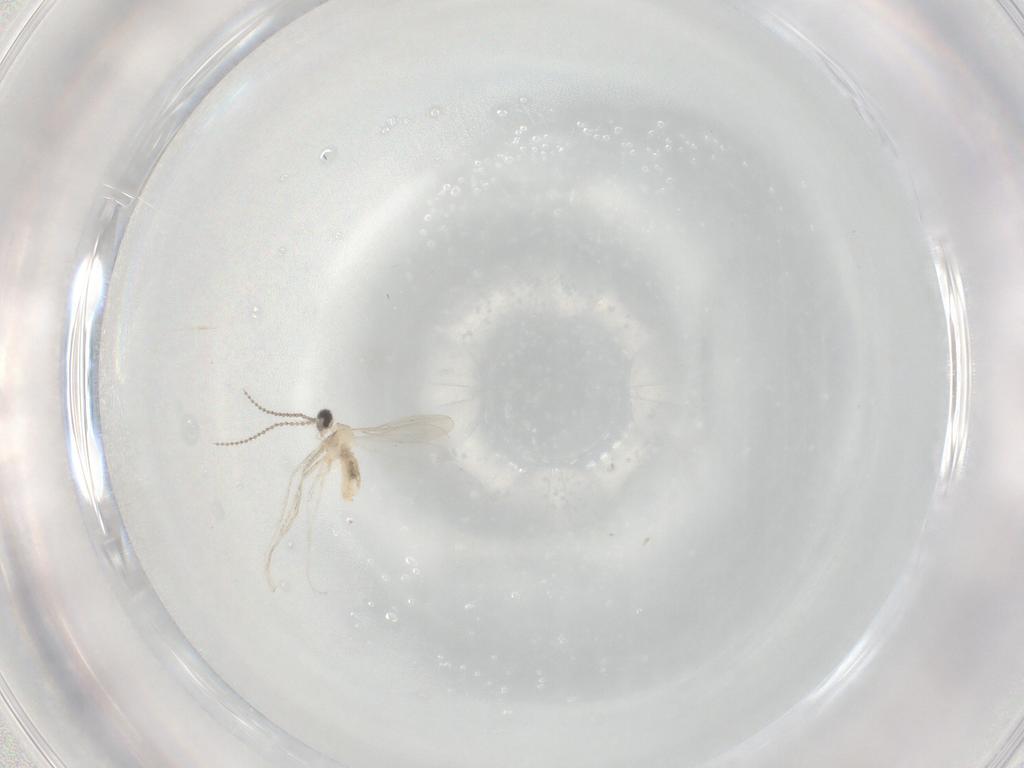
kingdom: Animalia
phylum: Arthropoda
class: Insecta
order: Diptera
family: Cecidomyiidae
